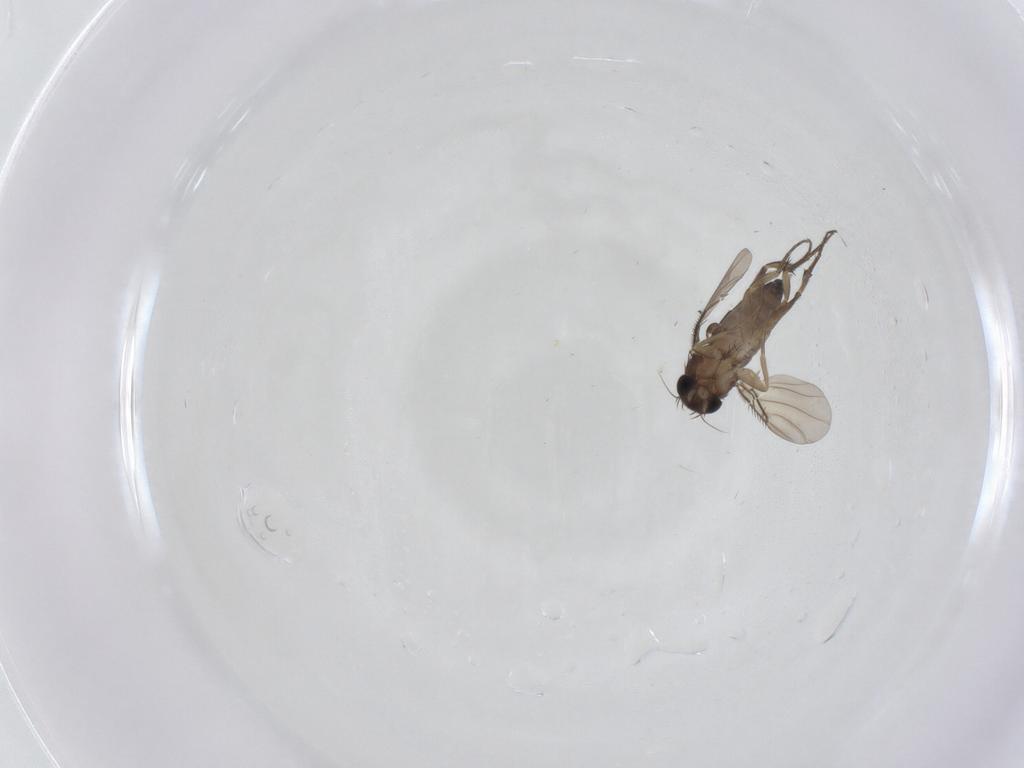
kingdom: Animalia
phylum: Arthropoda
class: Insecta
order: Diptera
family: Phoridae
